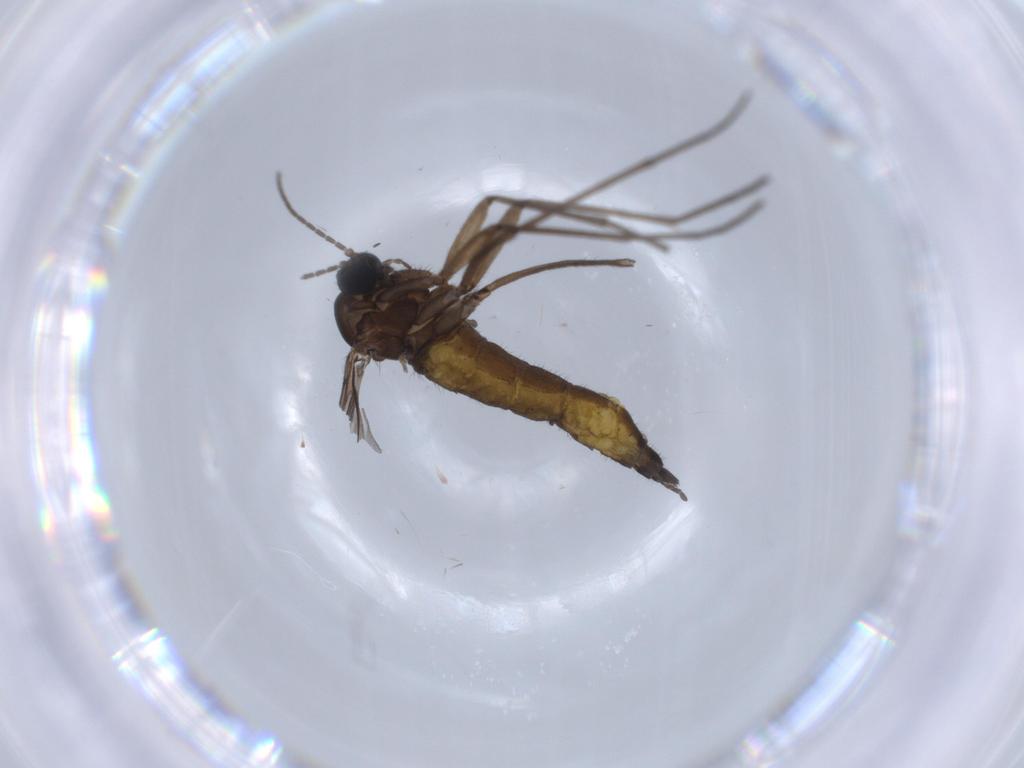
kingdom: Animalia
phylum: Arthropoda
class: Insecta
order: Diptera
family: Sciaridae
